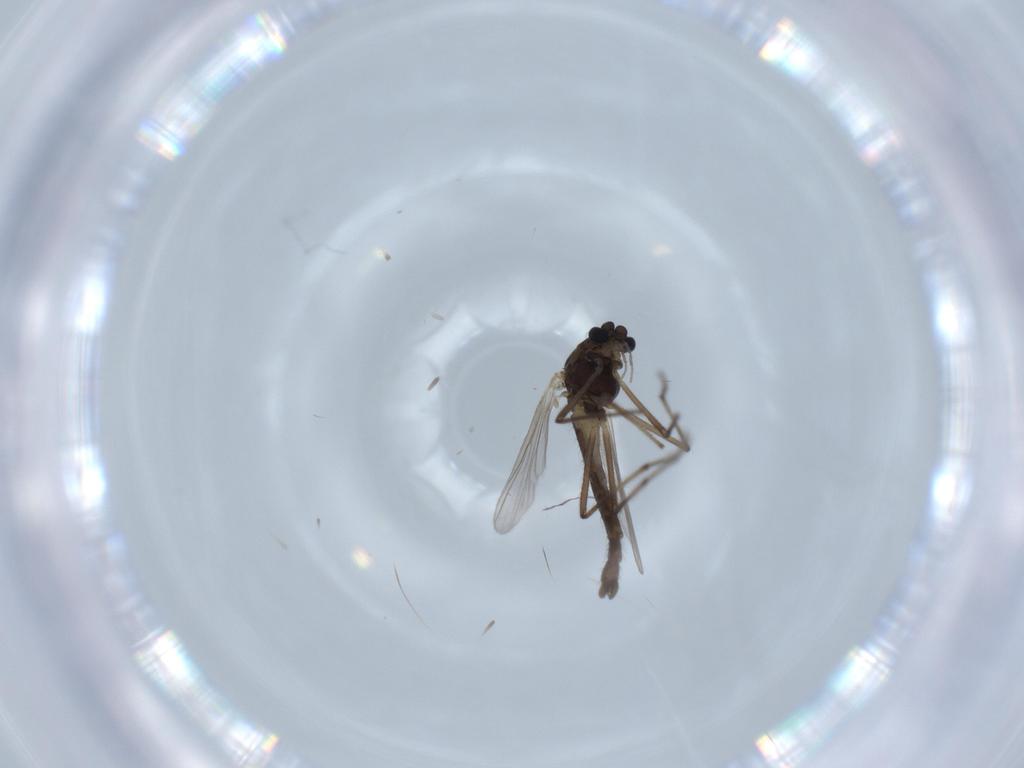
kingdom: Animalia
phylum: Arthropoda
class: Insecta
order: Diptera
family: Chironomidae
